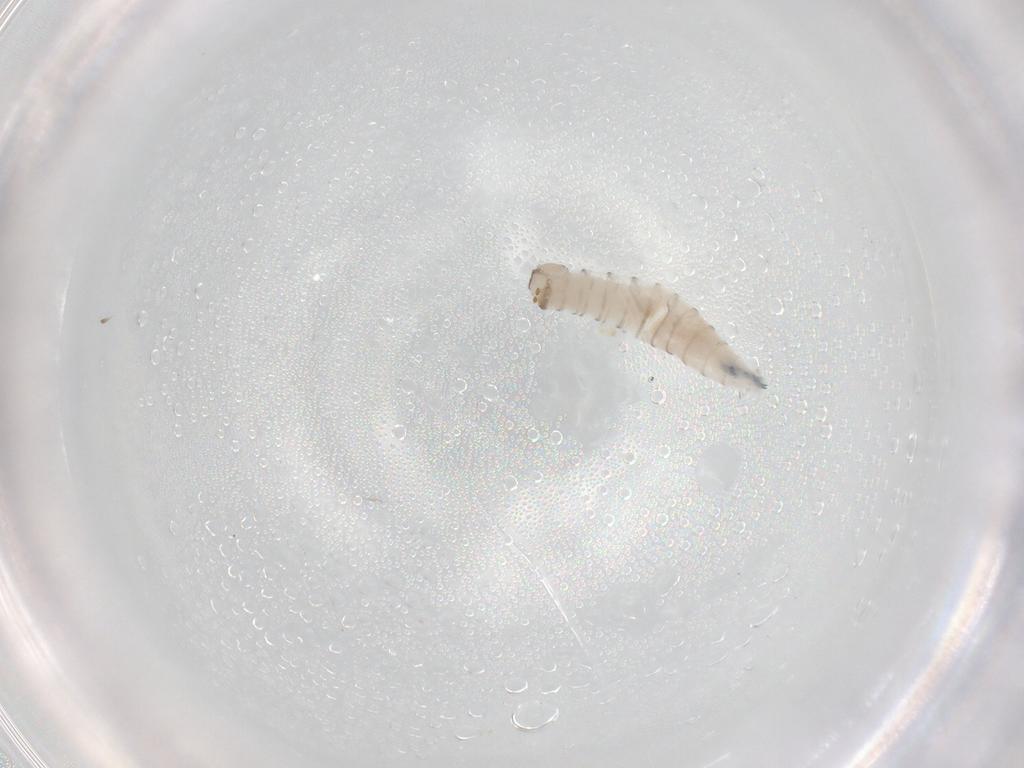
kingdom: Animalia
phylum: Arthropoda
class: Insecta
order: Diptera
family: Sarcophagidae
